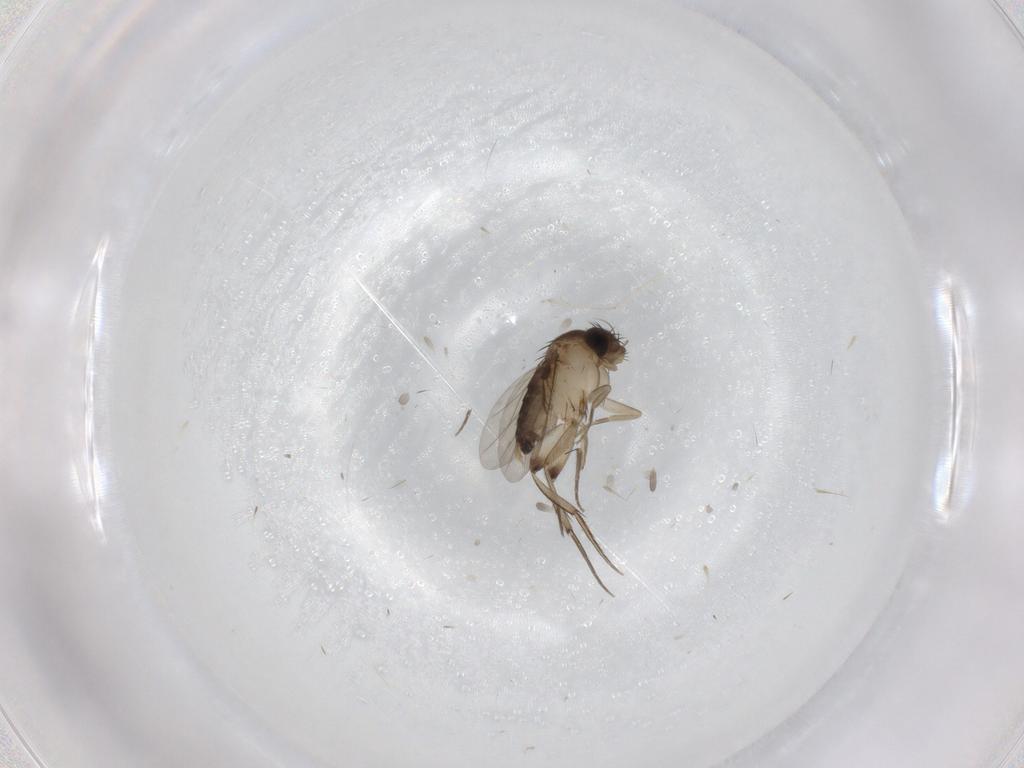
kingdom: Animalia
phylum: Arthropoda
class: Insecta
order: Diptera
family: Phoridae
